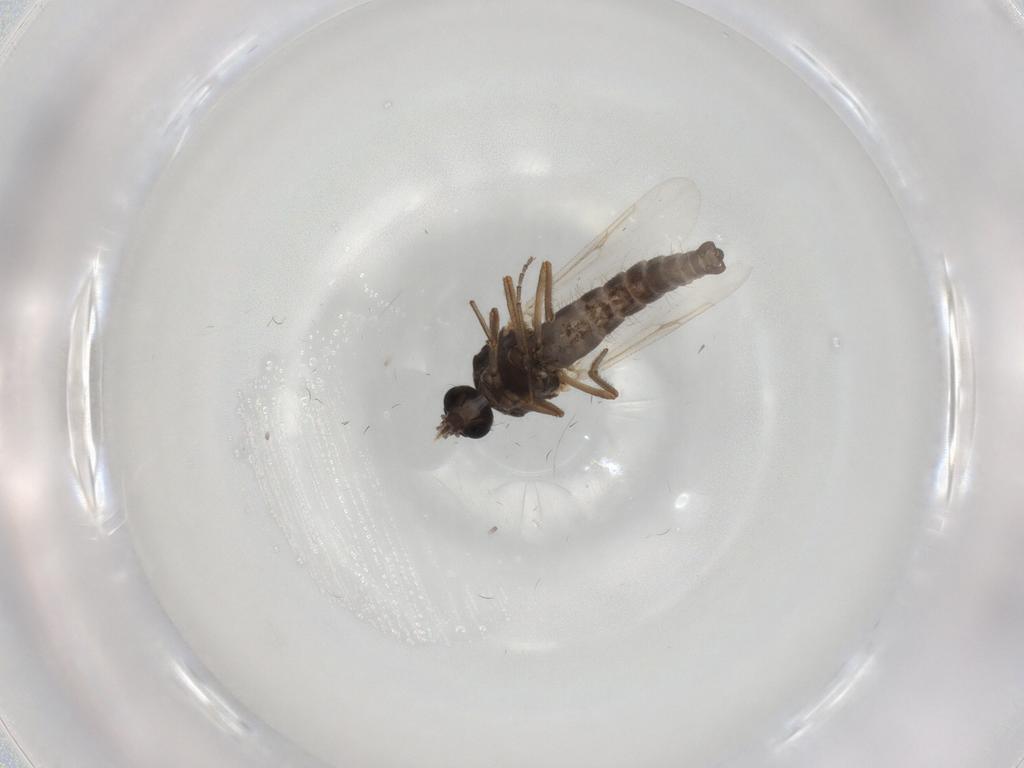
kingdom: Animalia
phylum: Arthropoda
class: Insecta
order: Diptera
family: Ceratopogonidae
